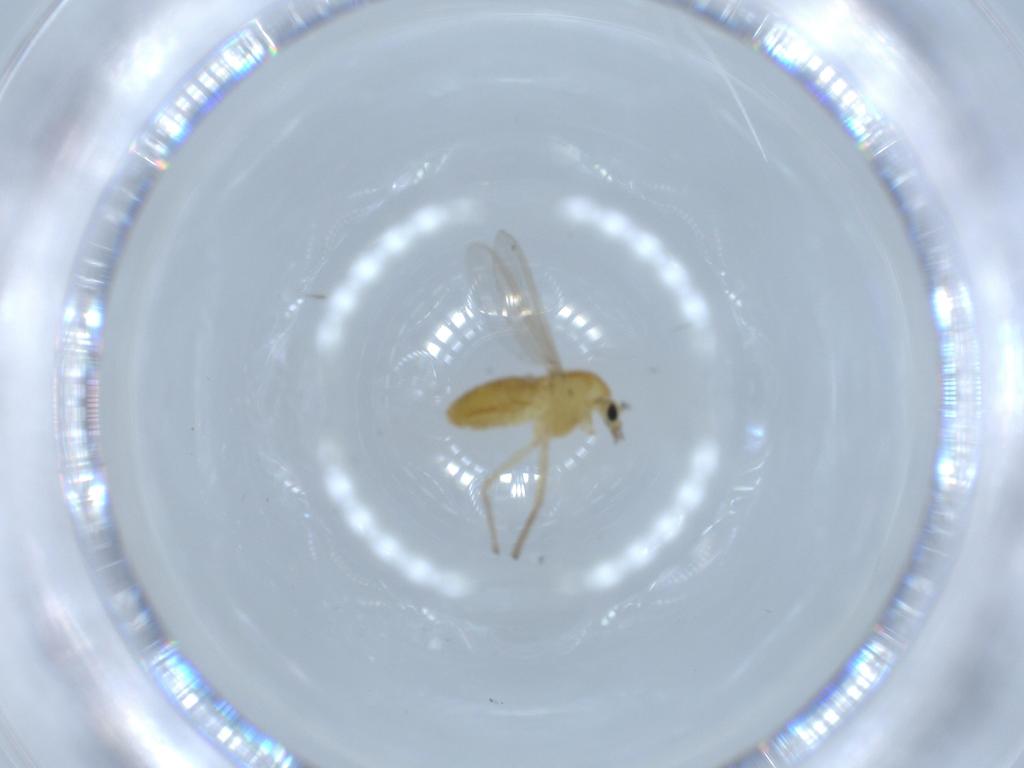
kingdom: Animalia
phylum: Arthropoda
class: Insecta
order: Diptera
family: Chironomidae
